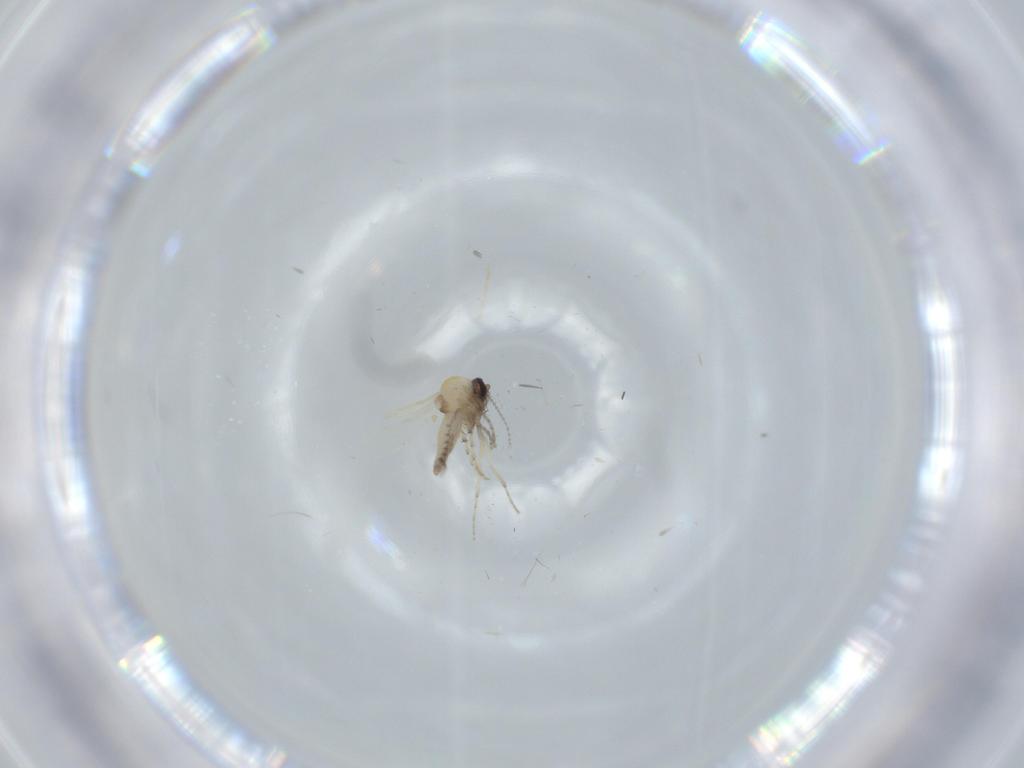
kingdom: Animalia
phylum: Arthropoda
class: Insecta
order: Diptera
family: Ceratopogonidae
